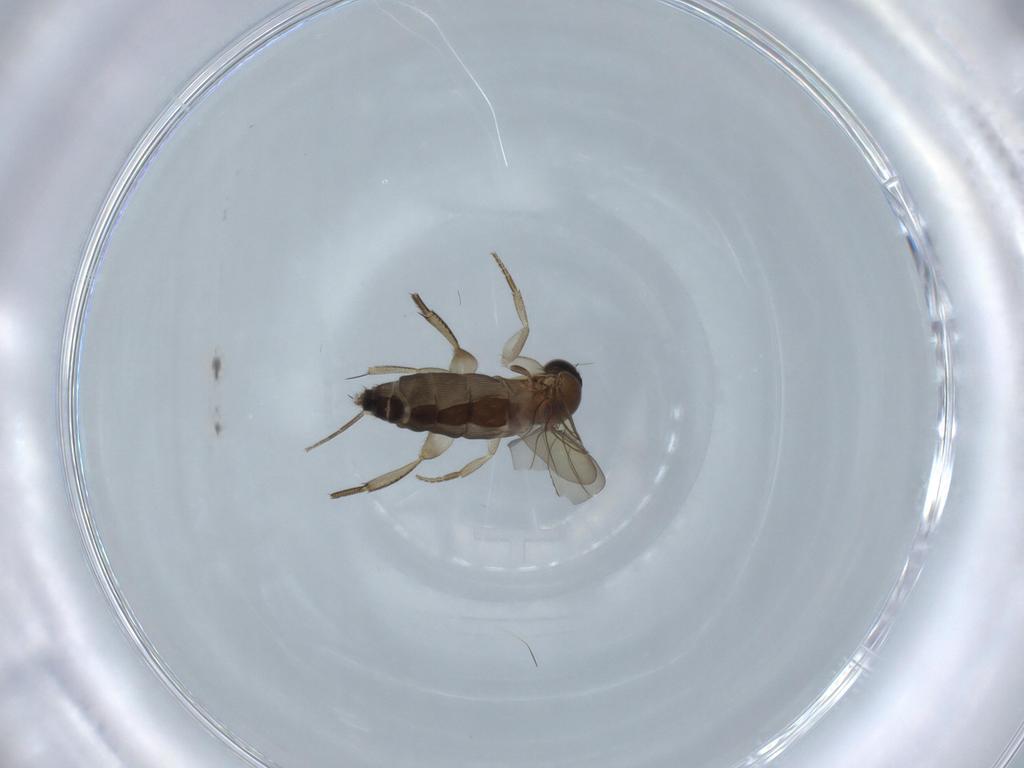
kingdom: Animalia
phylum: Arthropoda
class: Insecta
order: Diptera
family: Phoridae
